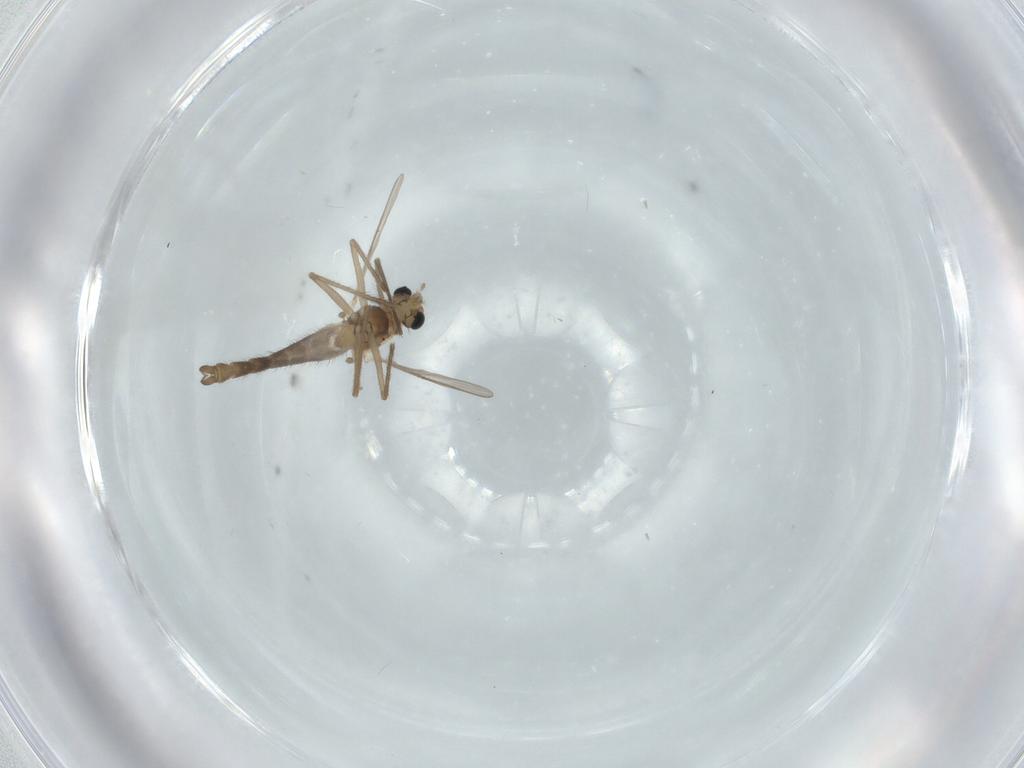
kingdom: Animalia
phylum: Arthropoda
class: Insecta
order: Diptera
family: Chironomidae
